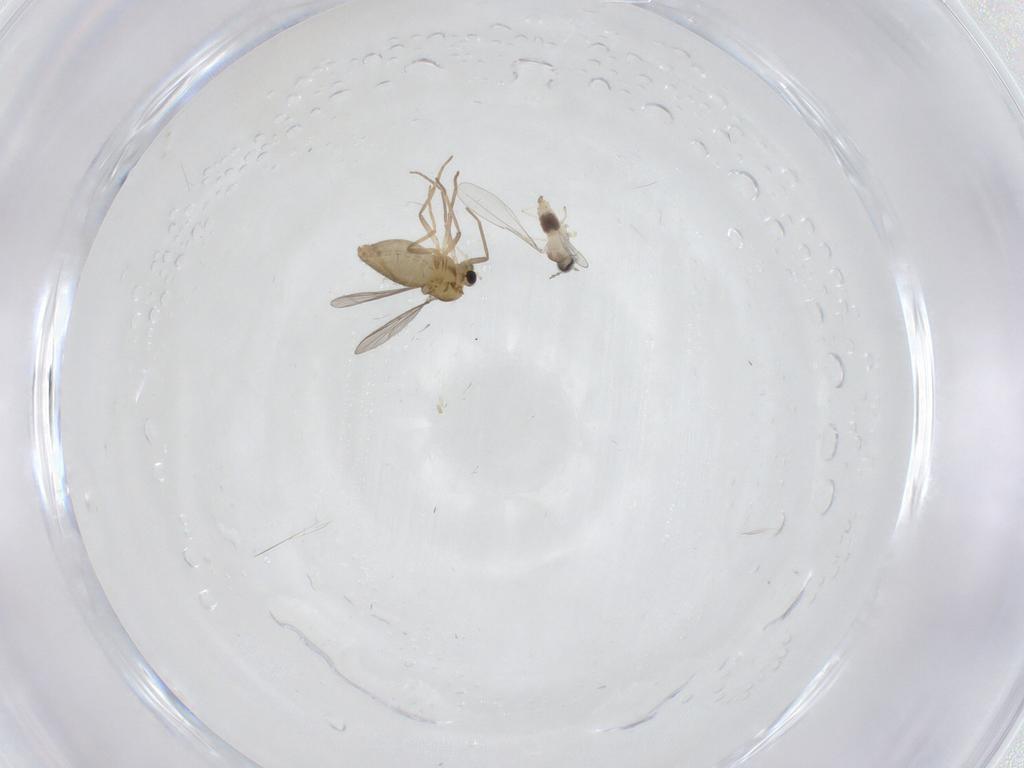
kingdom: Animalia
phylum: Arthropoda
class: Insecta
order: Diptera
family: Chironomidae
